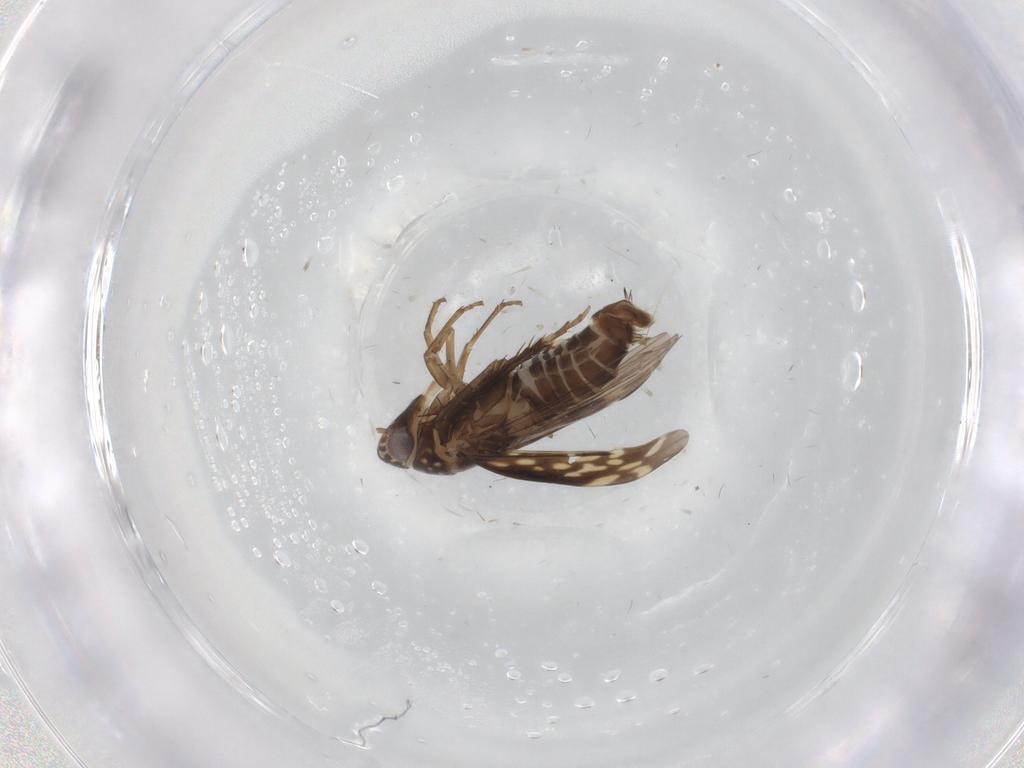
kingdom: Animalia
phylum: Arthropoda
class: Insecta
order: Hemiptera
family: Cicadellidae
